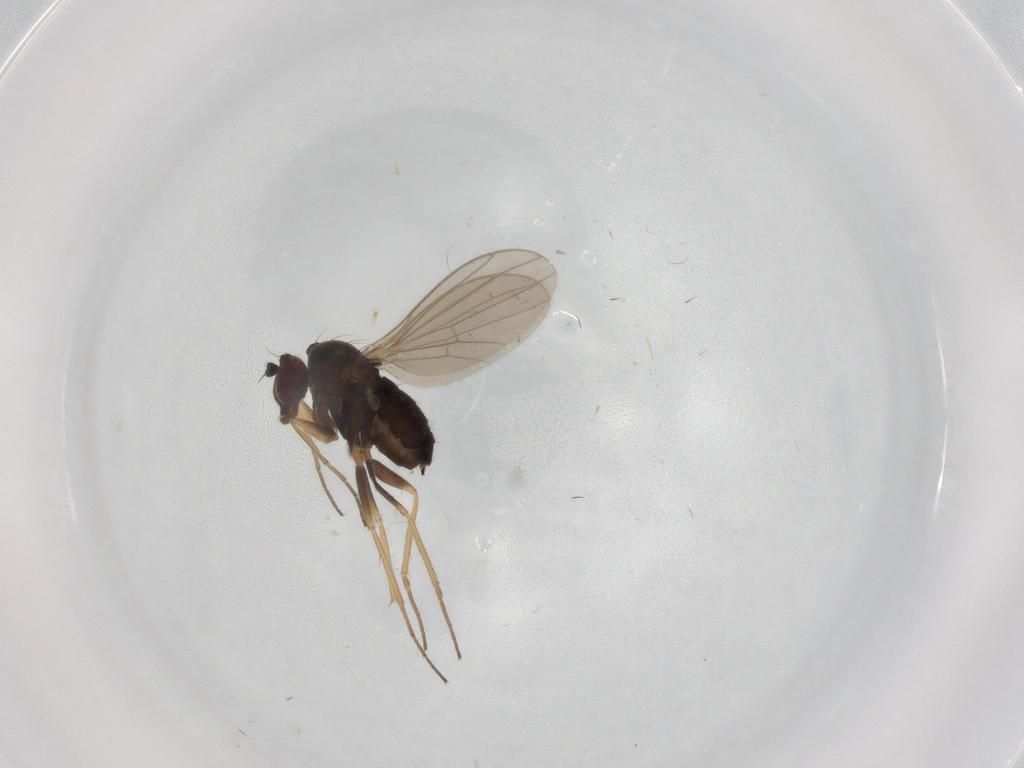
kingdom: Animalia
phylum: Arthropoda
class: Insecta
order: Diptera
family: Dolichopodidae
